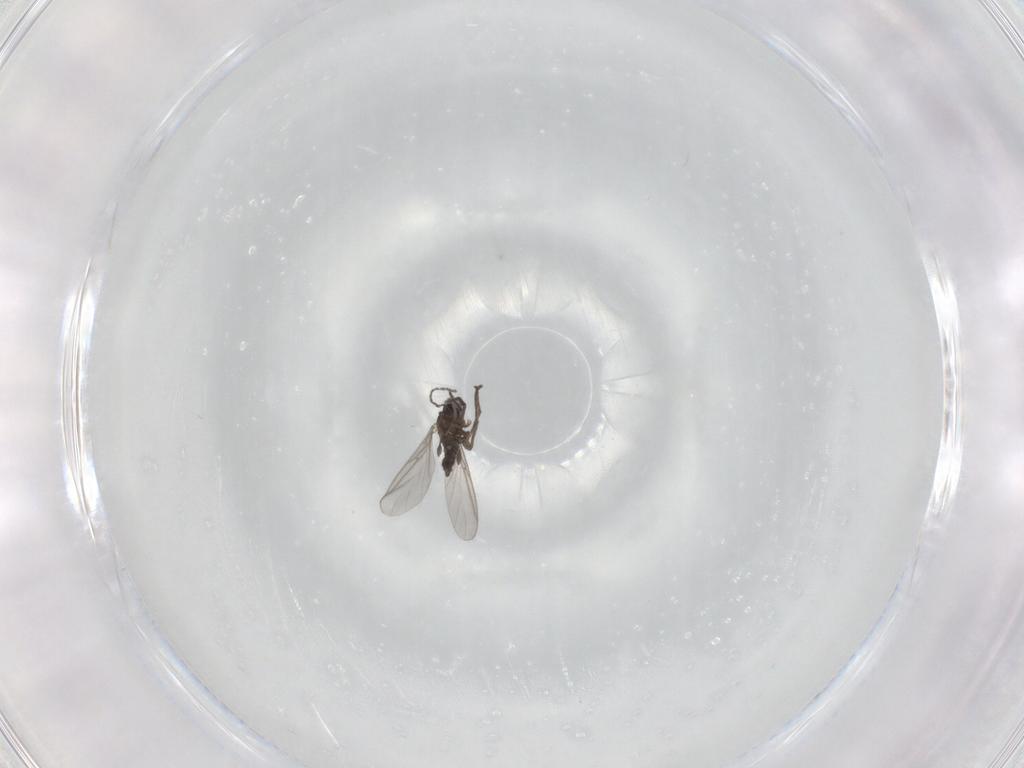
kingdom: Animalia
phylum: Arthropoda
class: Insecta
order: Diptera
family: Sciaridae
